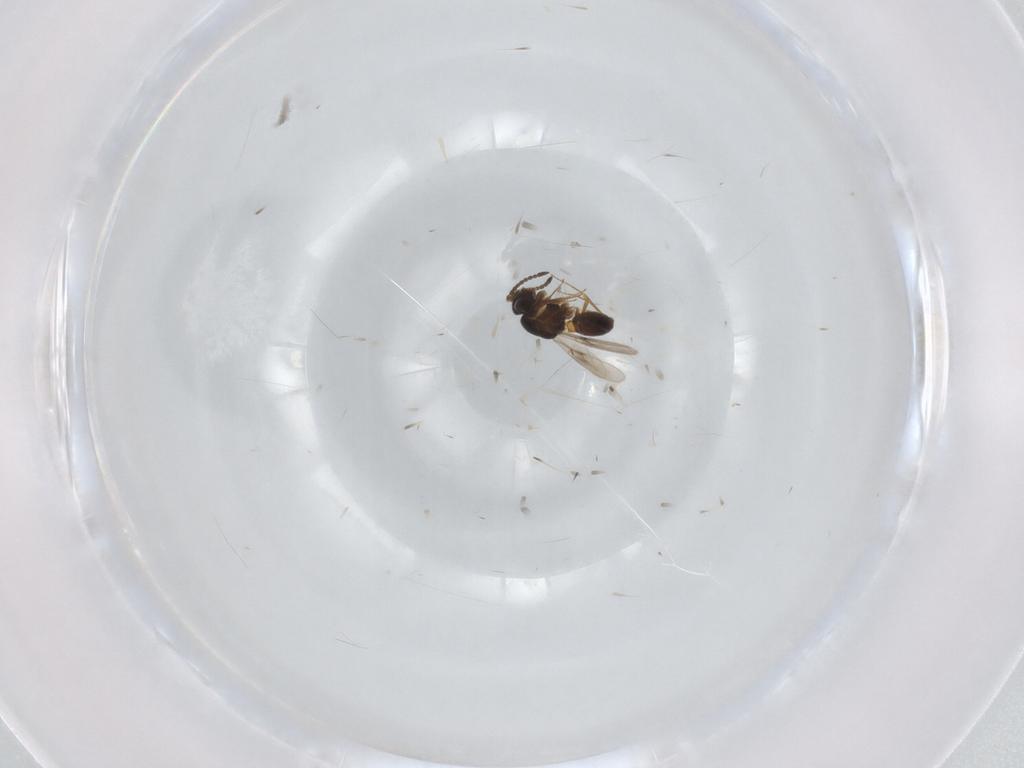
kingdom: Animalia
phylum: Arthropoda
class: Insecta
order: Hymenoptera
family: Scelionidae
